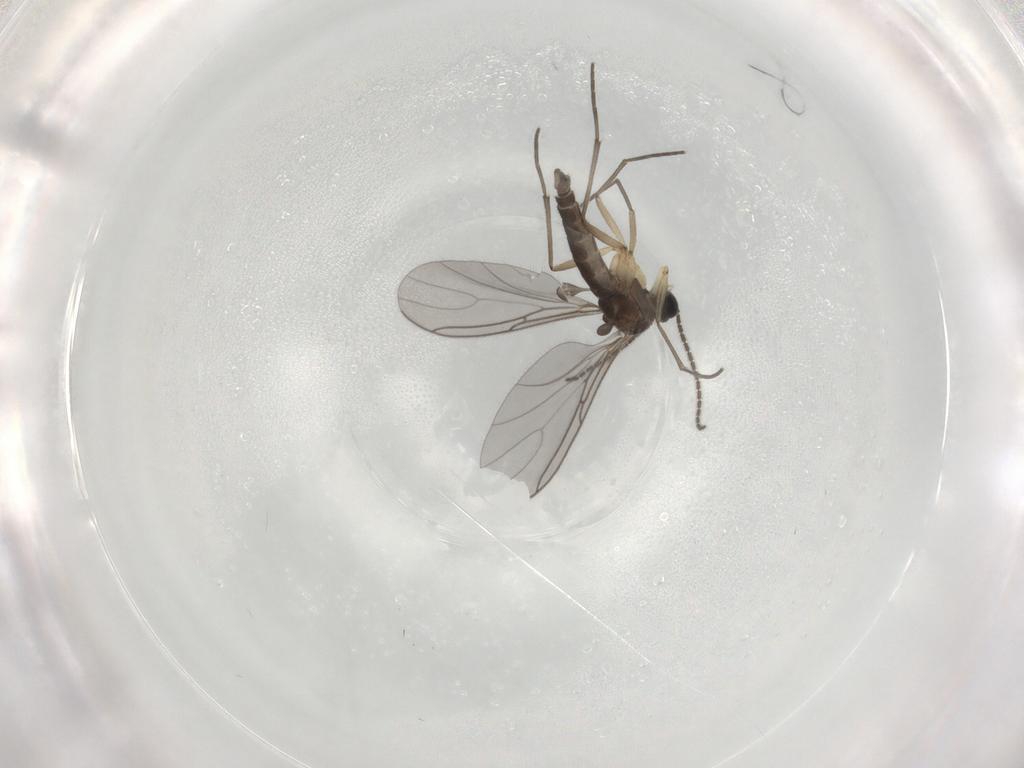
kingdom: Animalia
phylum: Arthropoda
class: Insecta
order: Diptera
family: Sciaridae
